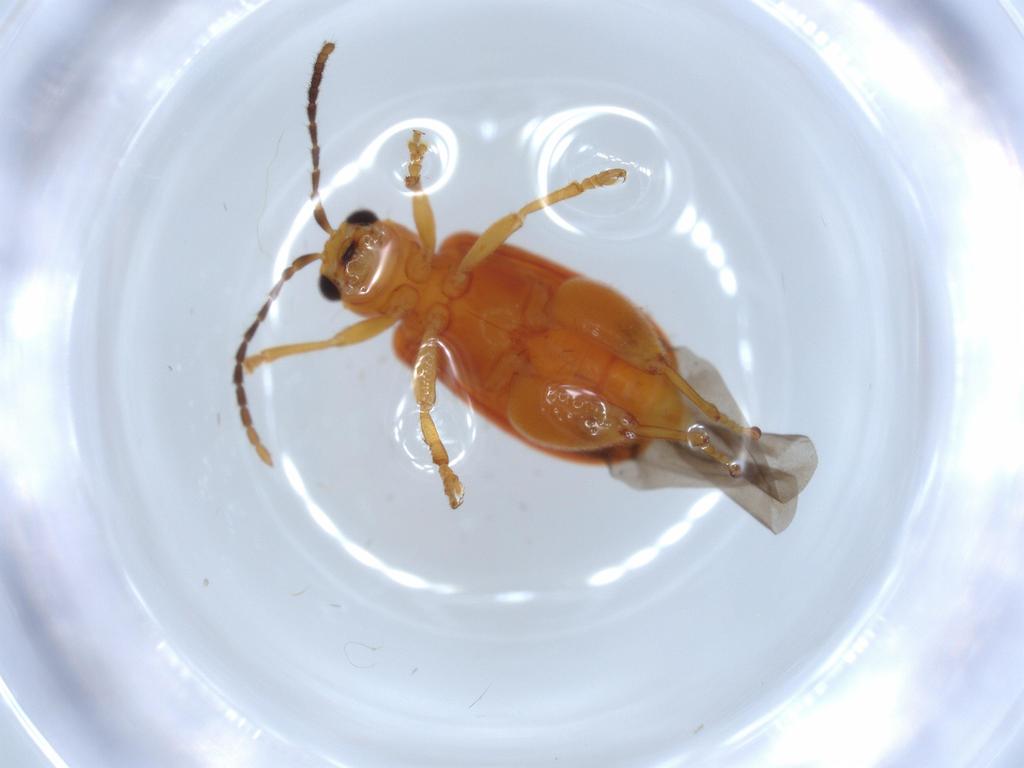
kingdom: Animalia
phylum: Arthropoda
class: Insecta
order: Coleoptera
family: Chrysomelidae
